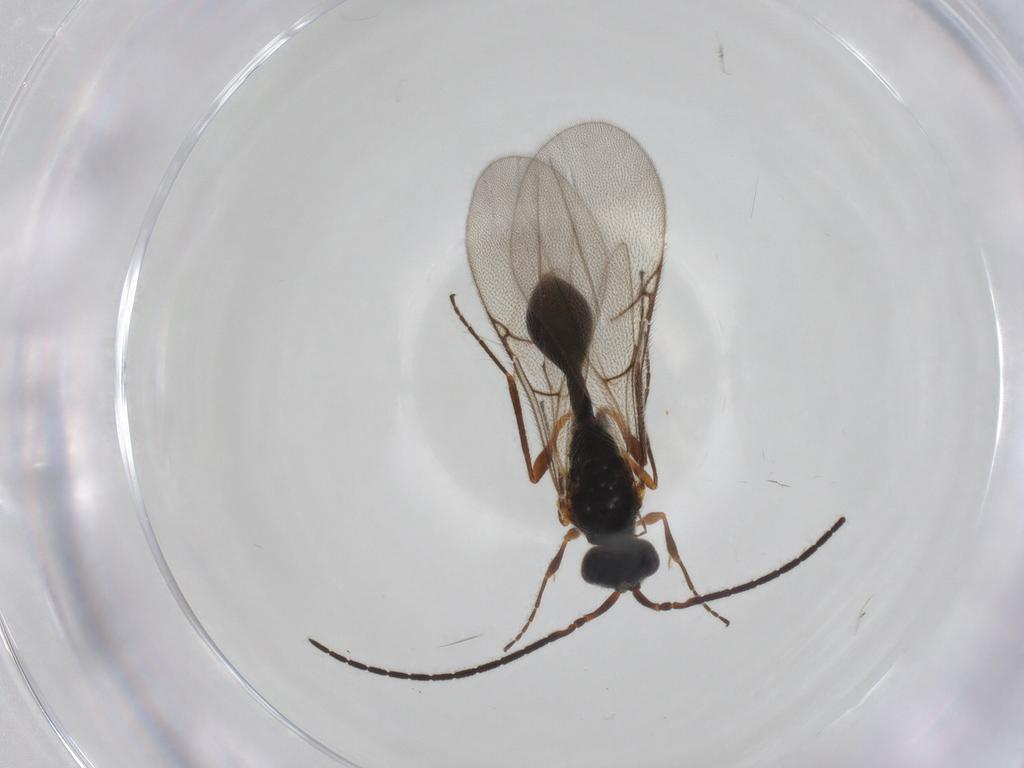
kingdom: Animalia
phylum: Arthropoda
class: Insecta
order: Hymenoptera
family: Diapriidae
